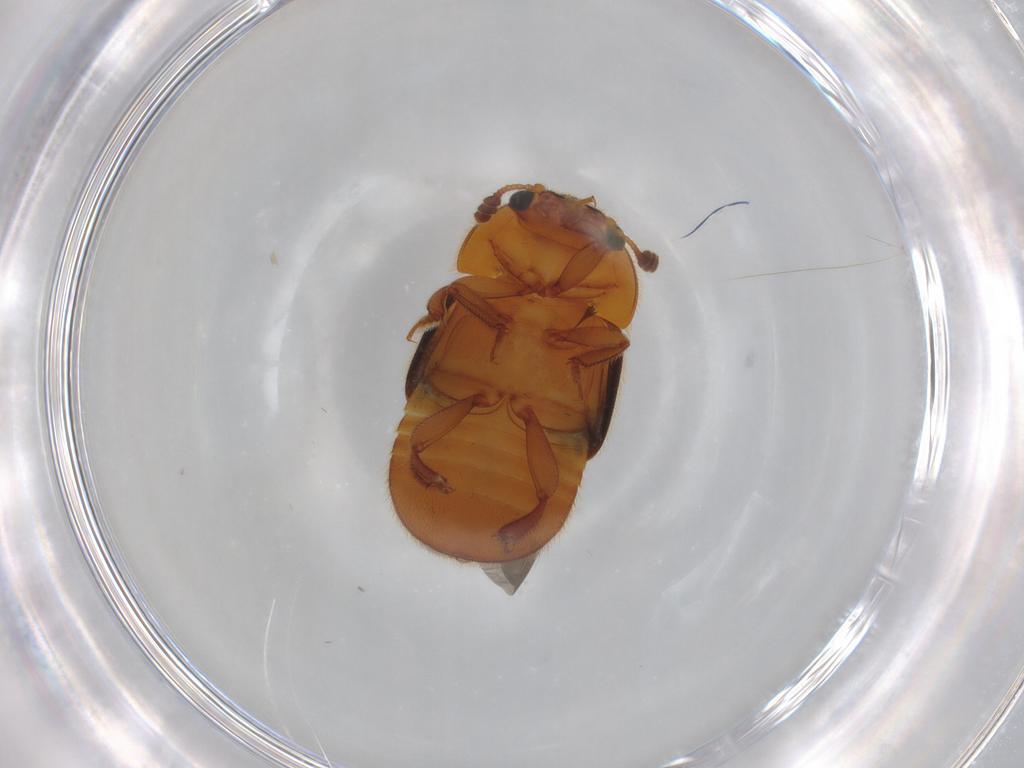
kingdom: Animalia
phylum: Arthropoda
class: Insecta
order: Coleoptera
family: Nitidulidae
